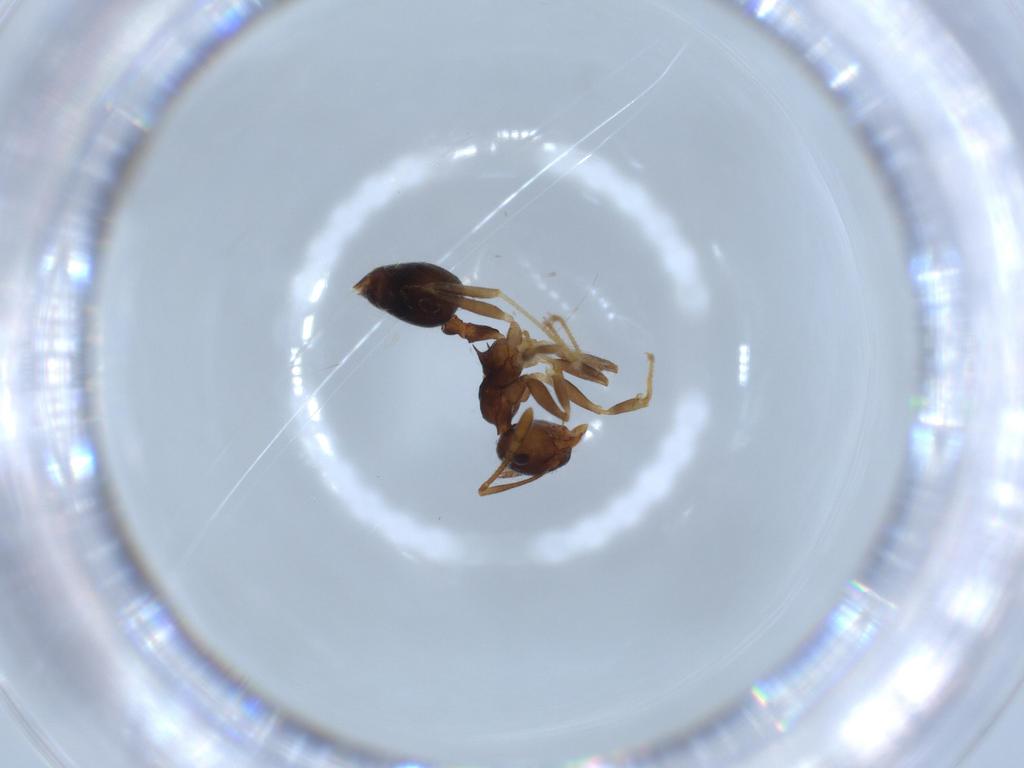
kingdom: Animalia
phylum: Arthropoda
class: Insecta
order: Hymenoptera
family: Formicidae
